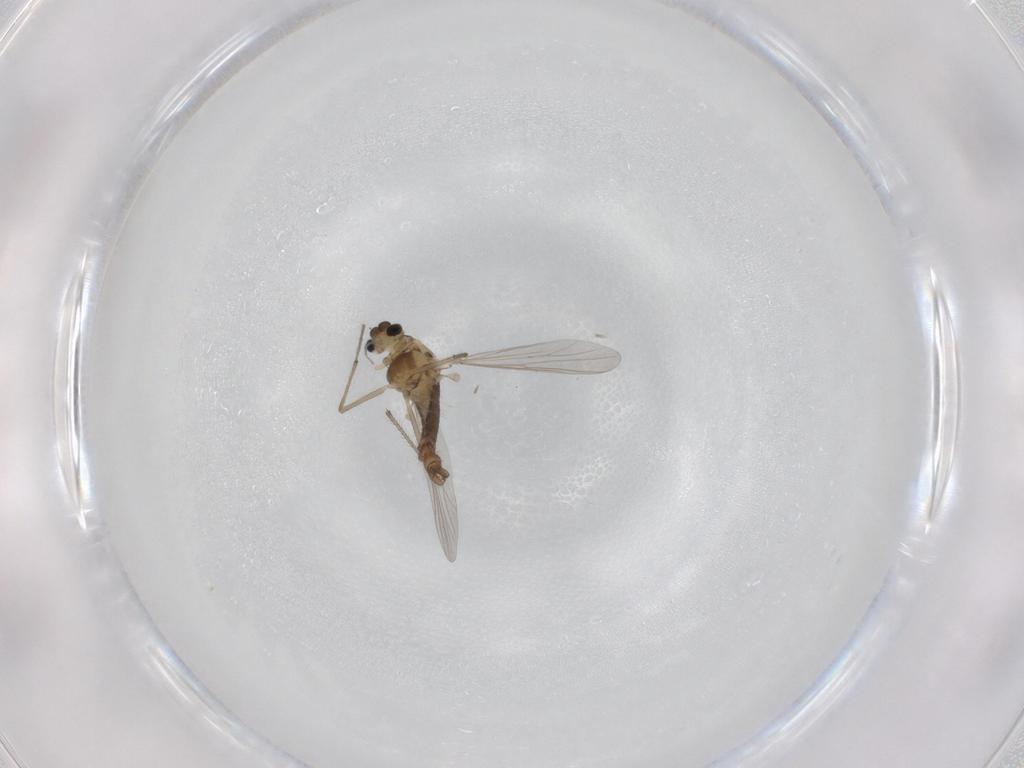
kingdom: Animalia
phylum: Arthropoda
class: Insecta
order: Diptera
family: Chironomidae
